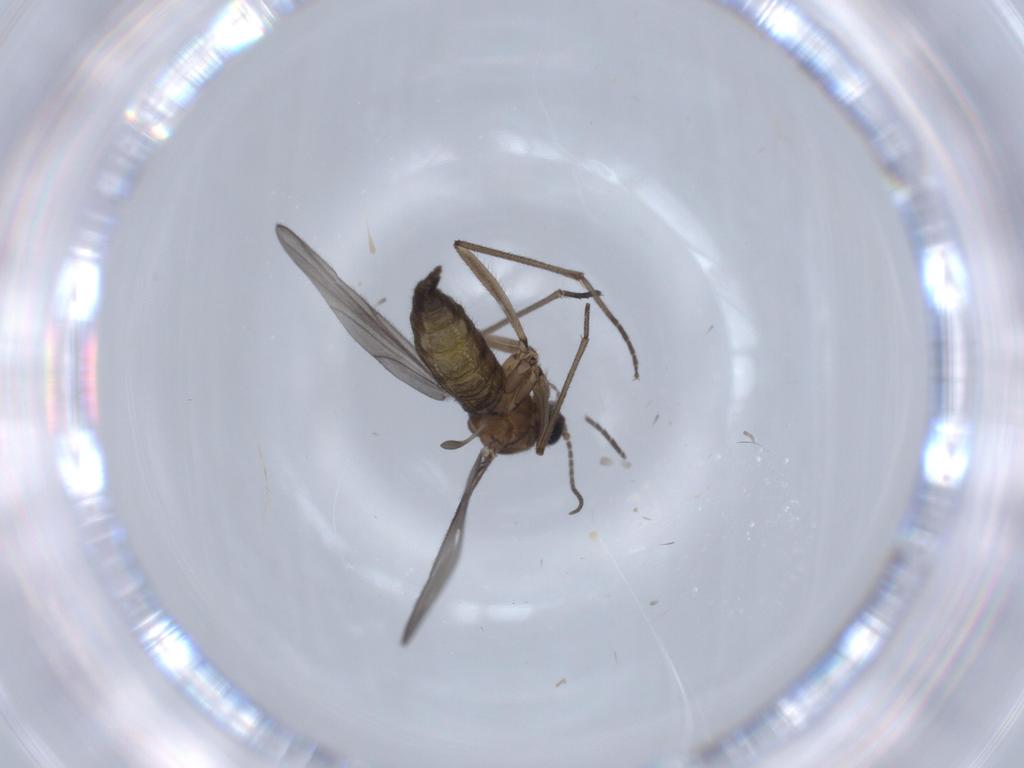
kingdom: Animalia
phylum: Arthropoda
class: Insecta
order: Diptera
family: Sciaridae
